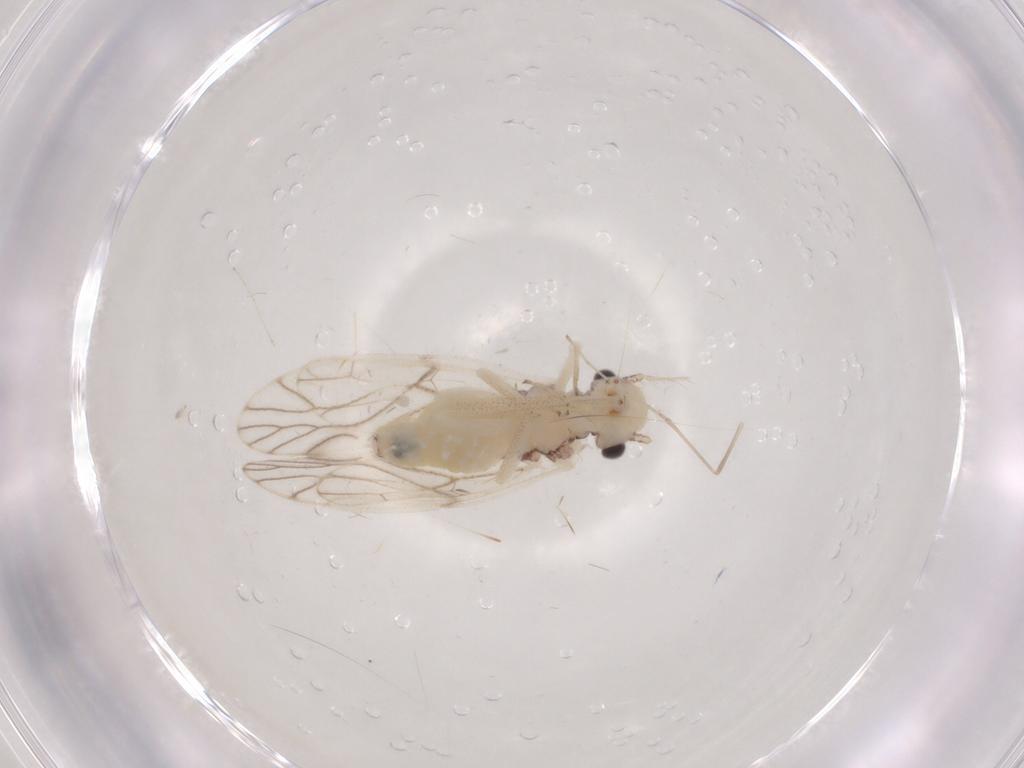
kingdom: Animalia
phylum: Arthropoda
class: Insecta
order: Psocodea
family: Philotarsidae
